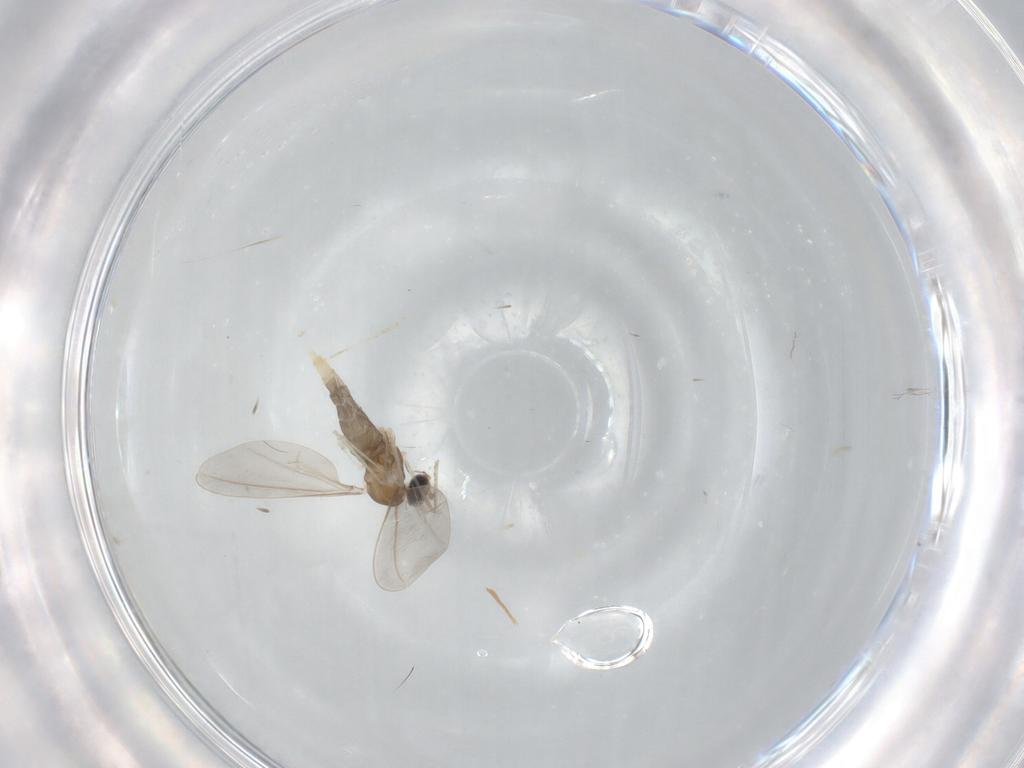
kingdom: Animalia
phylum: Arthropoda
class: Insecta
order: Diptera
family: Cecidomyiidae
